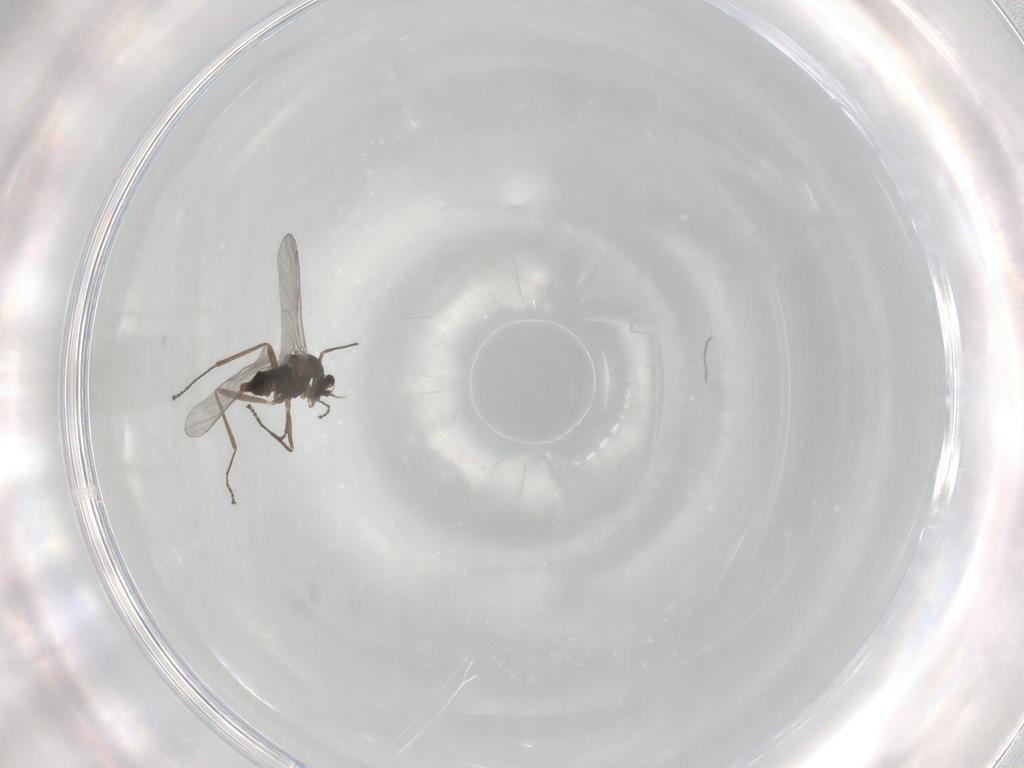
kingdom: Animalia
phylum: Arthropoda
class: Insecta
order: Diptera
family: Cecidomyiidae
